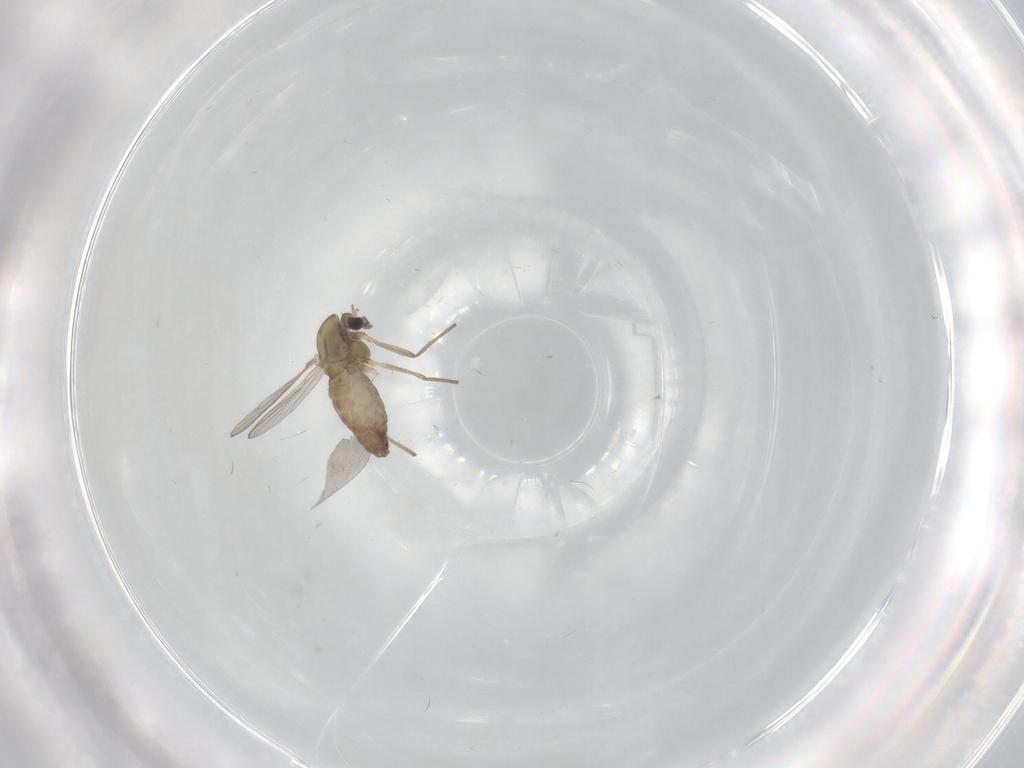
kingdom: Animalia
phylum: Arthropoda
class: Insecta
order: Diptera
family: Chironomidae
